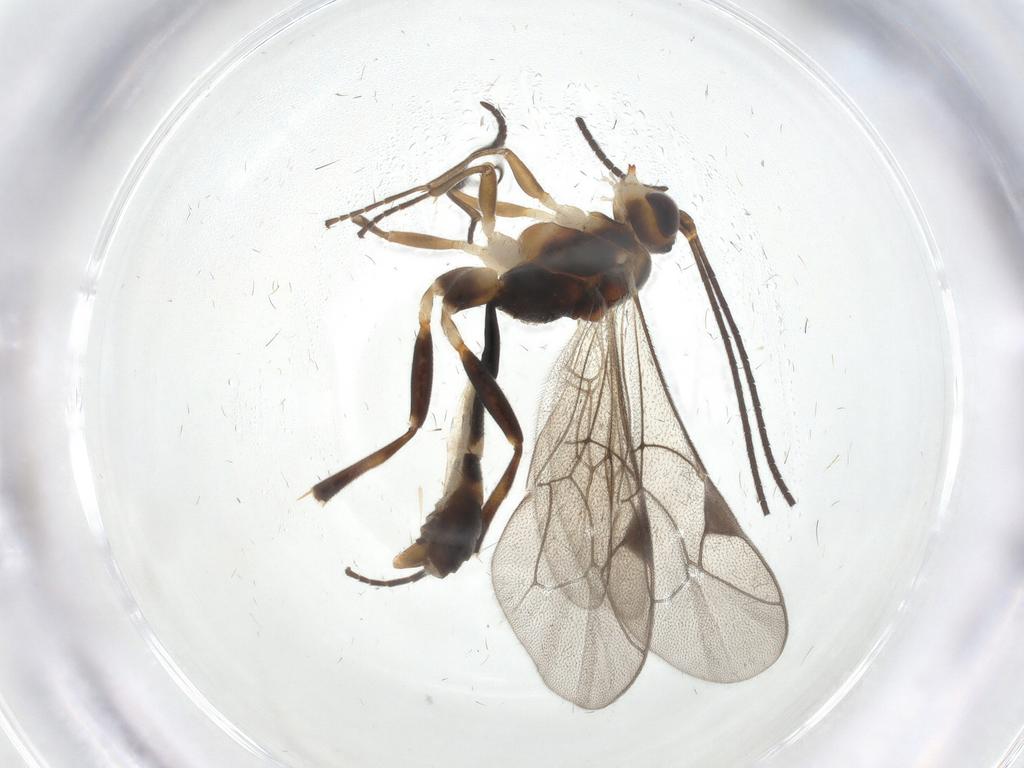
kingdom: Animalia
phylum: Arthropoda
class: Insecta
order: Hymenoptera
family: Ichneumonidae
